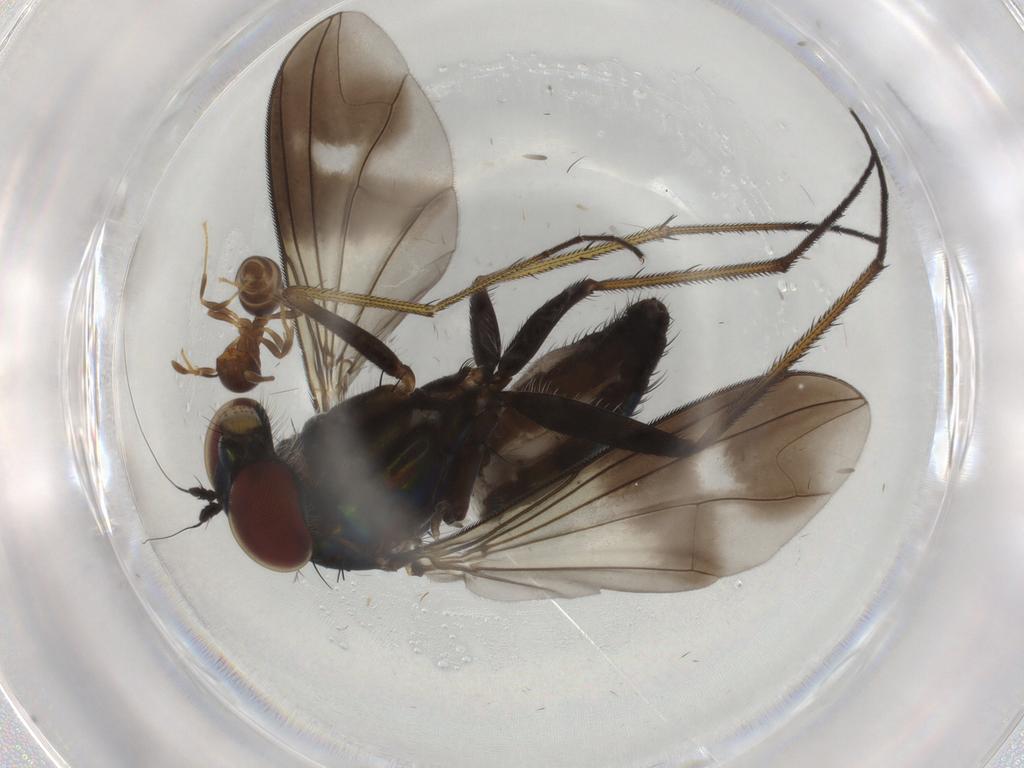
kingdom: Animalia
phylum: Arthropoda
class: Insecta
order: Diptera
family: Dolichopodidae
